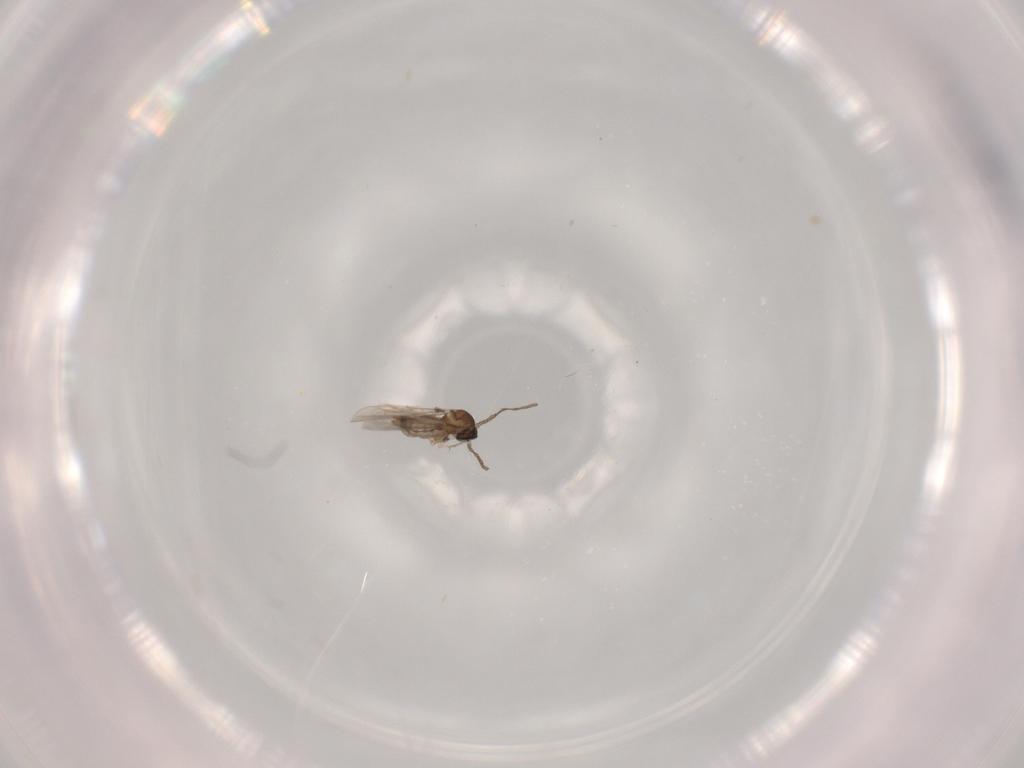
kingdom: Animalia
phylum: Arthropoda
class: Insecta
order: Diptera
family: Cecidomyiidae
